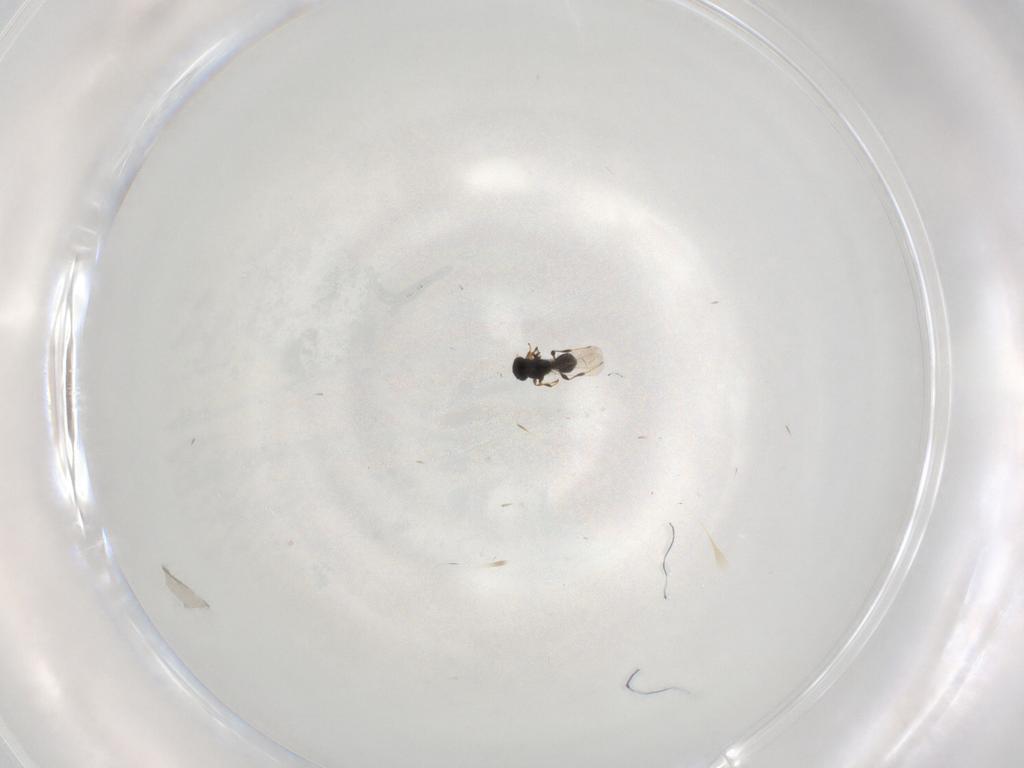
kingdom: Animalia
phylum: Arthropoda
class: Insecta
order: Hymenoptera
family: Formicidae
